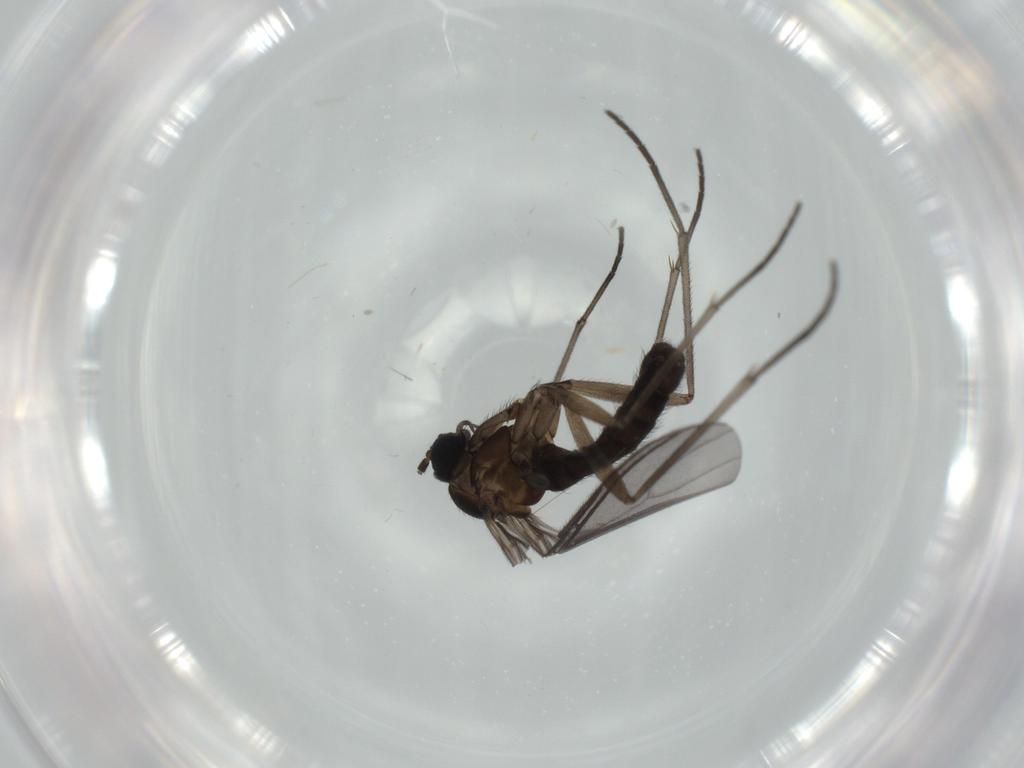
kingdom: Animalia
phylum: Arthropoda
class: Insecta
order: Diptera
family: Sciaridae
